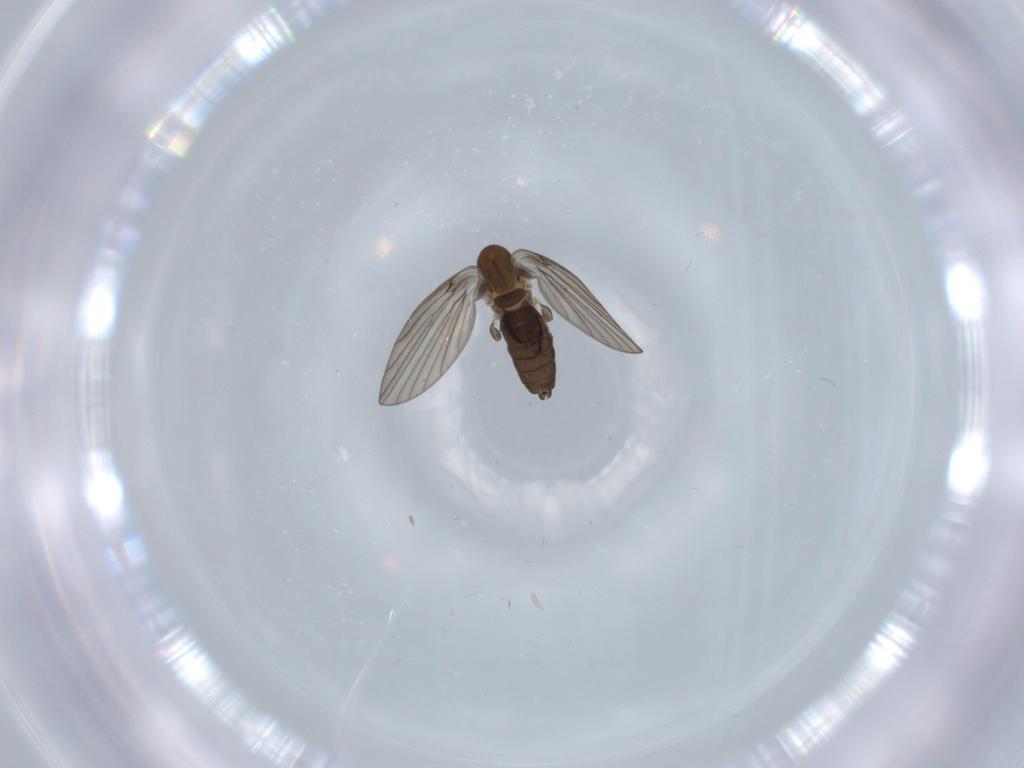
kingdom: Animalia
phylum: Arthropoda
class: Insecta
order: Diptera
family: Psychodidae
